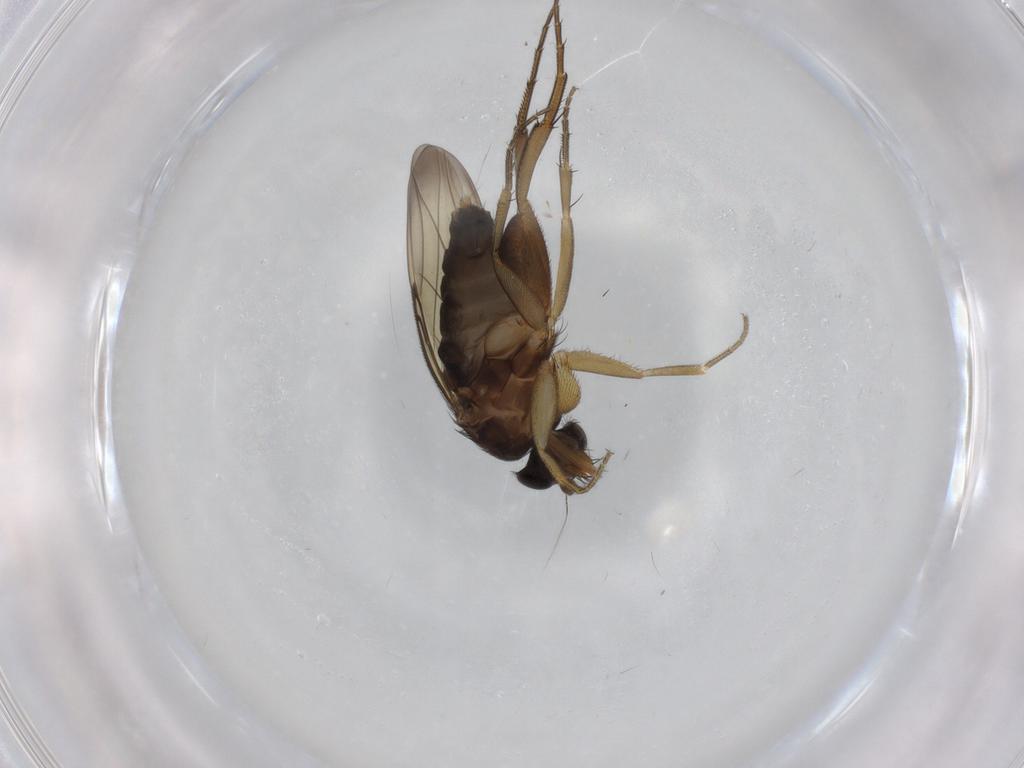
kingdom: Animalia
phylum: Arthropoda
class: Insecta
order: Diptera
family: Phoridae
